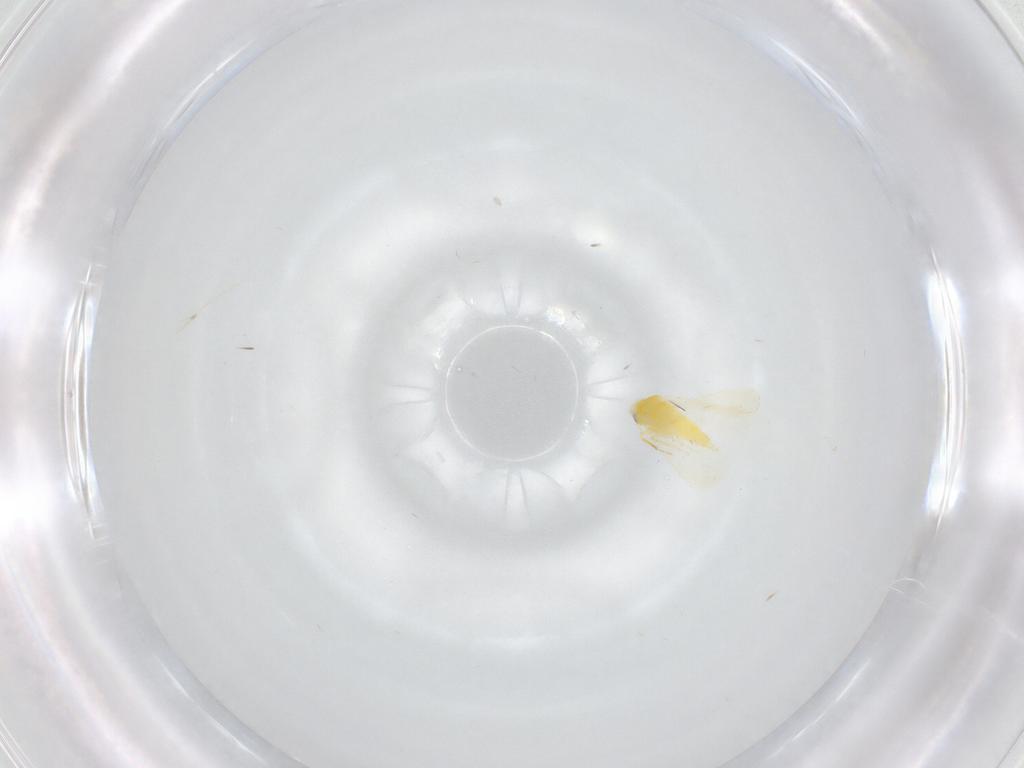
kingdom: Animalia
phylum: Arthropoda
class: Insecta
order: Hemiptera
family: Aleyrodidae
